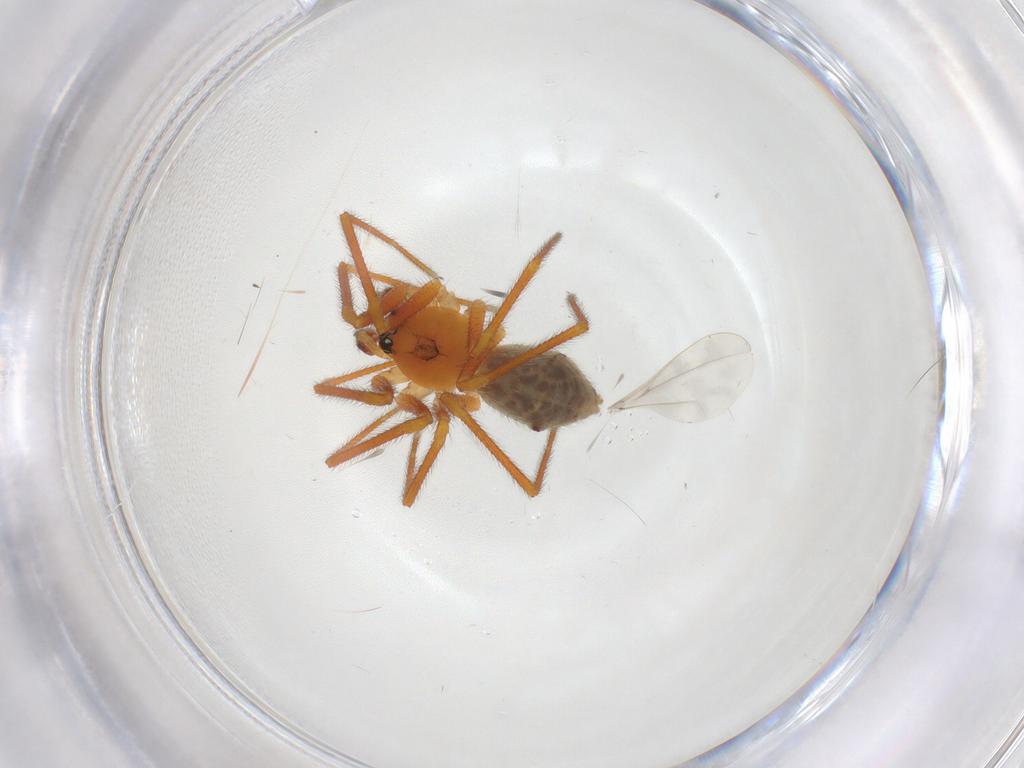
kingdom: Animalia
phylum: Arthropoda
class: Arachnida
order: Araneae
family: Linyphiidae
